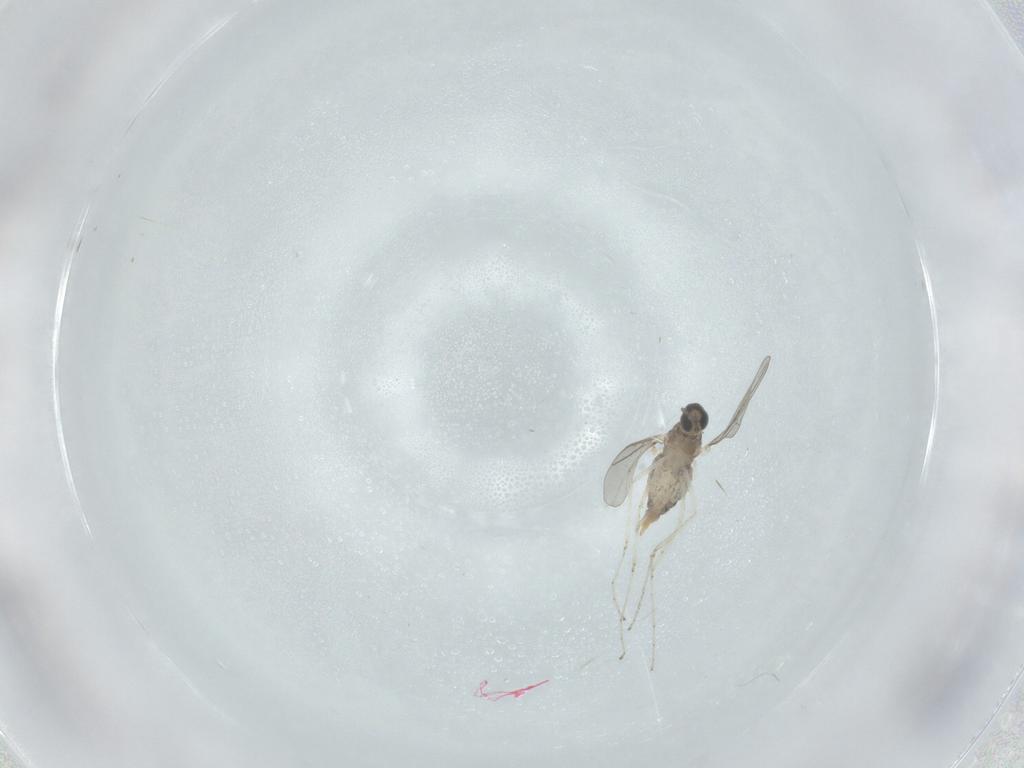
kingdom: Animalia
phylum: Arthropoda
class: Insecta
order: Diptera
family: Cecidomyiidae
